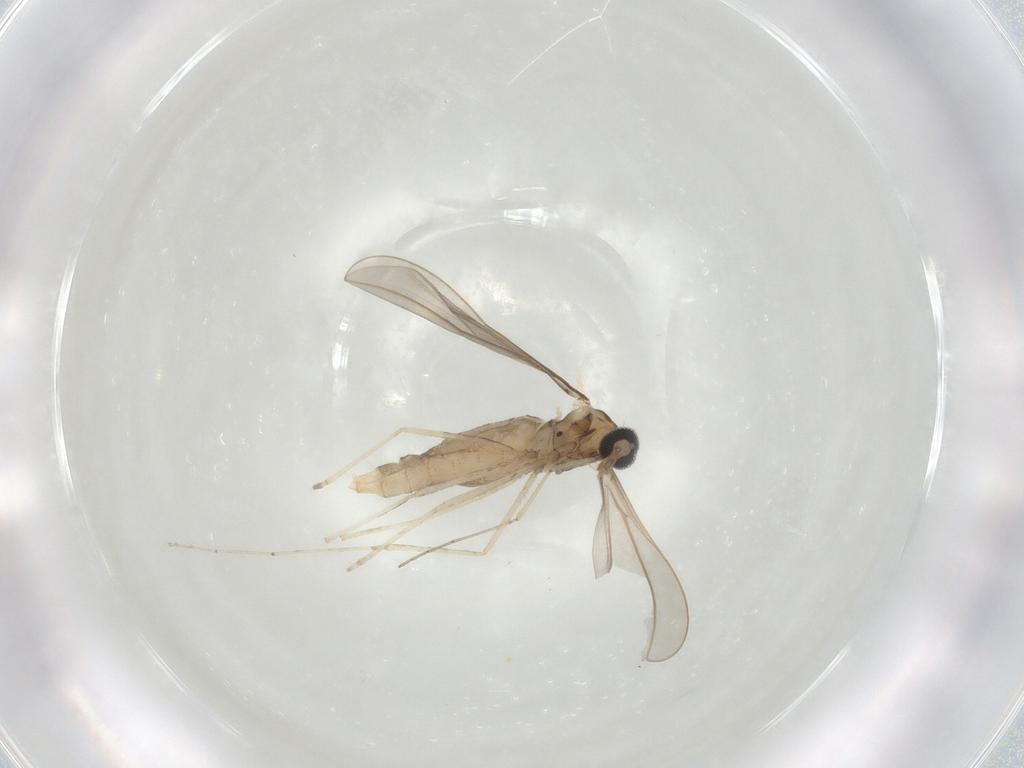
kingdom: Animalia
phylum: Arthropoda
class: Insecta
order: Diptera
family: Cecidomyiidae
